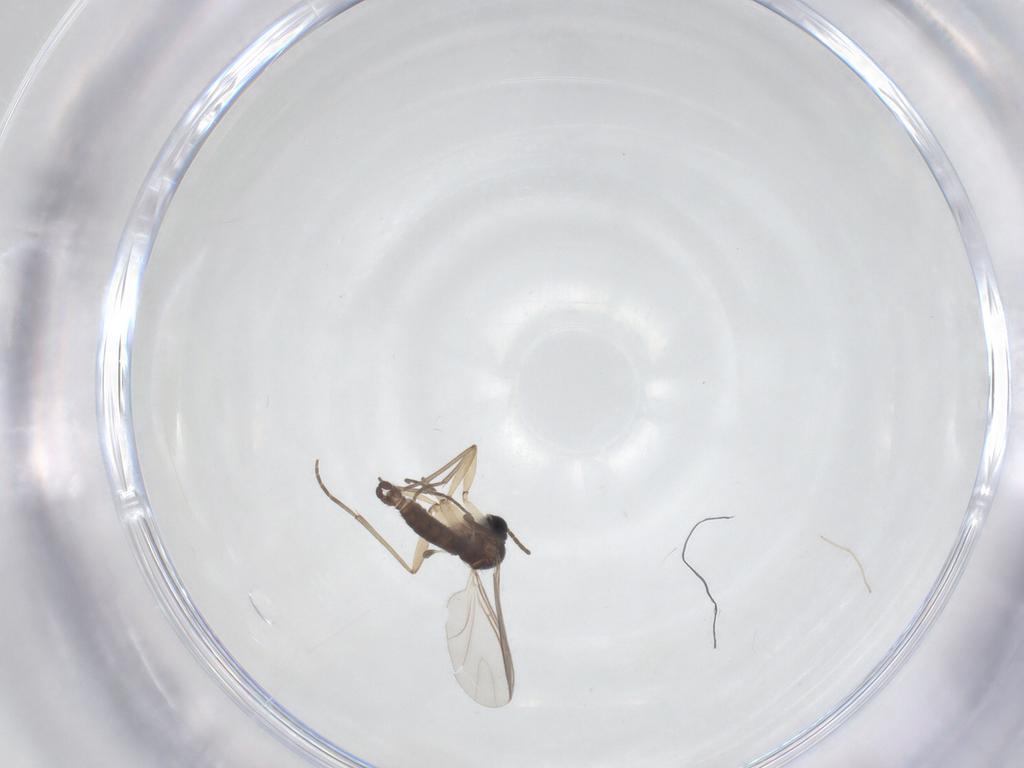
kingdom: Animalia
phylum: Arthropoda
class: Insecta
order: Diptera
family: Sciaridae
